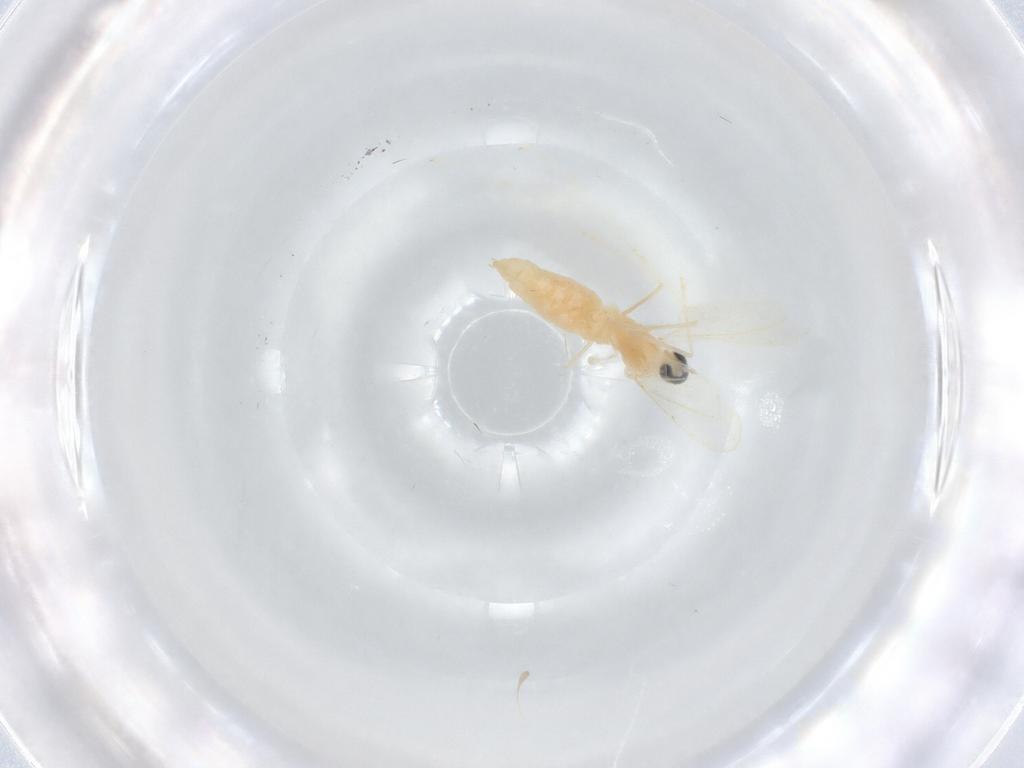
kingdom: Animalia
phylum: Arthropoda
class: Insecta
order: Diptera
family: Cecidomyiidae
